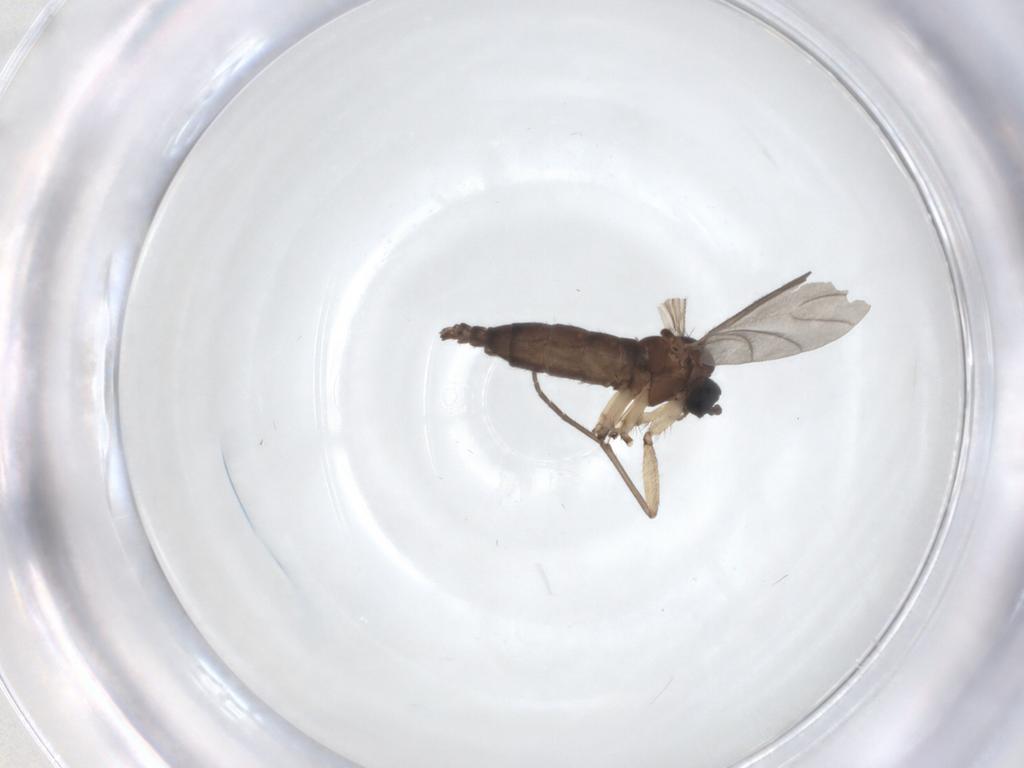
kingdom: Animalia
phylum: Arthropoda
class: Insecta
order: Diptera
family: Sciaridae
